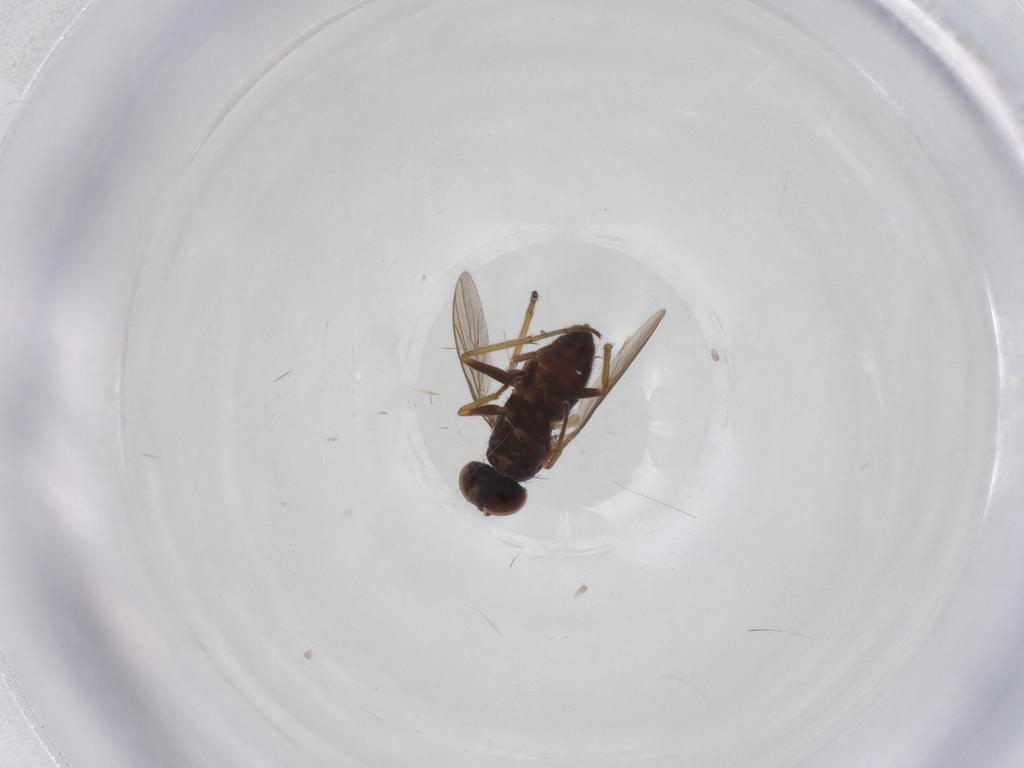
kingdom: Animalia
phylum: Arthropoda
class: Insecta
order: Diptera
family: Dolichopodidae
